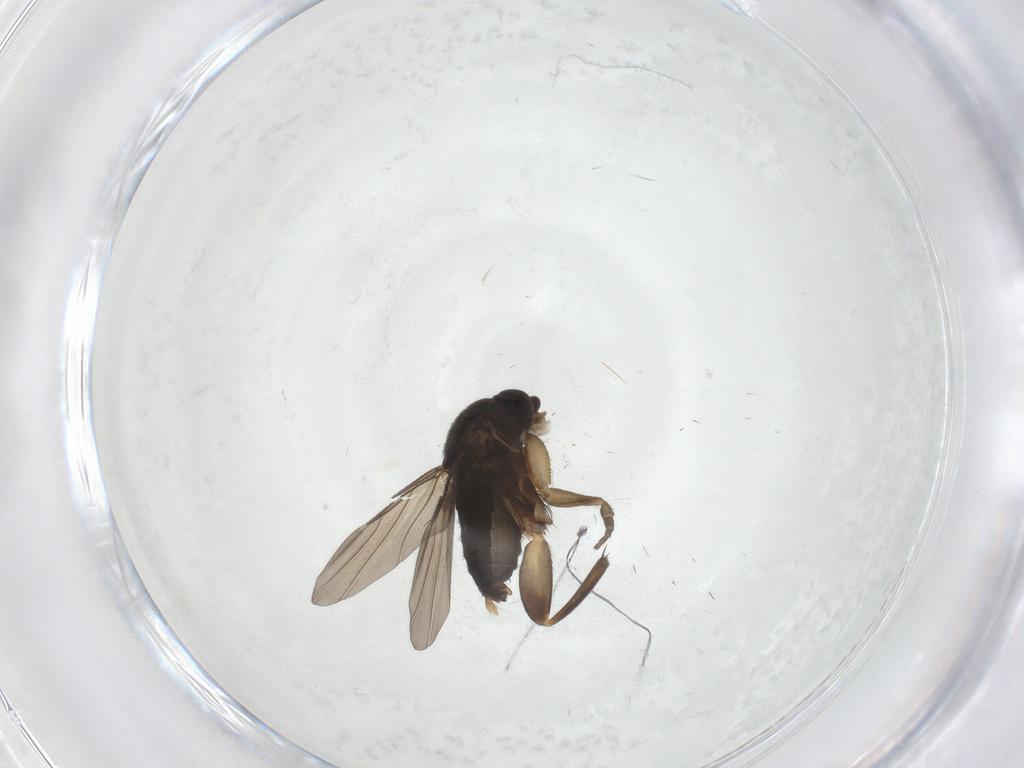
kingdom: Animalia
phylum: Arthropoda
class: Insecta
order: Diptera
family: Phoridae
